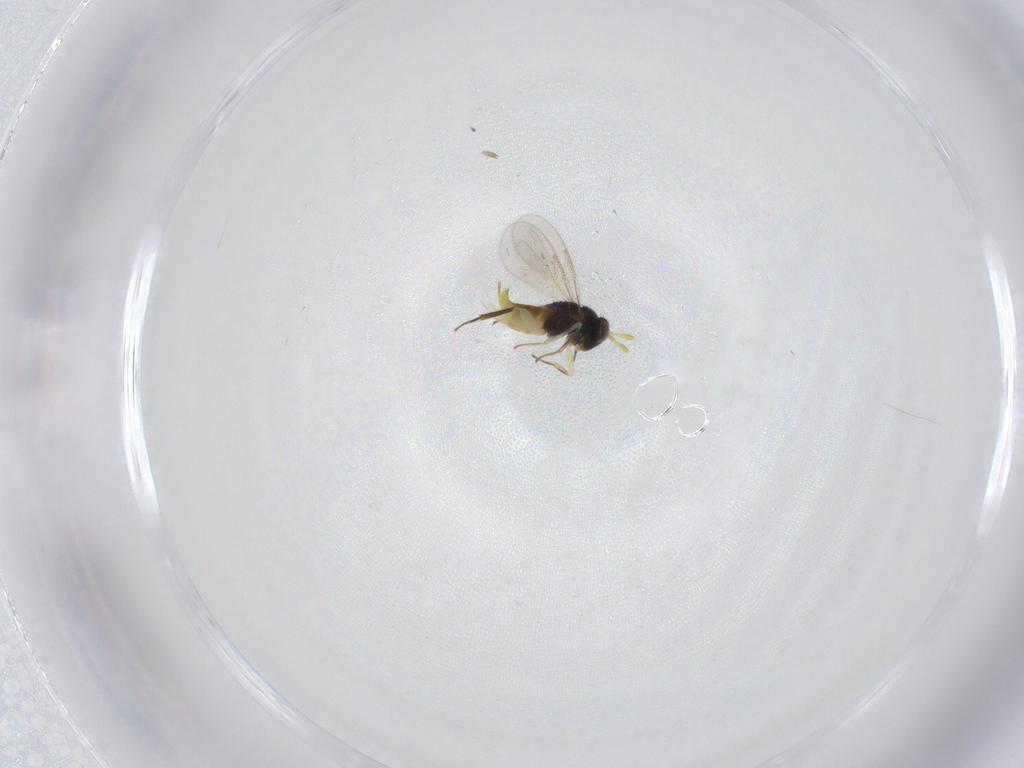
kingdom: Animalia
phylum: Arthropoda
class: Insecta
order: Hymenoptera
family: Aphelinidae
